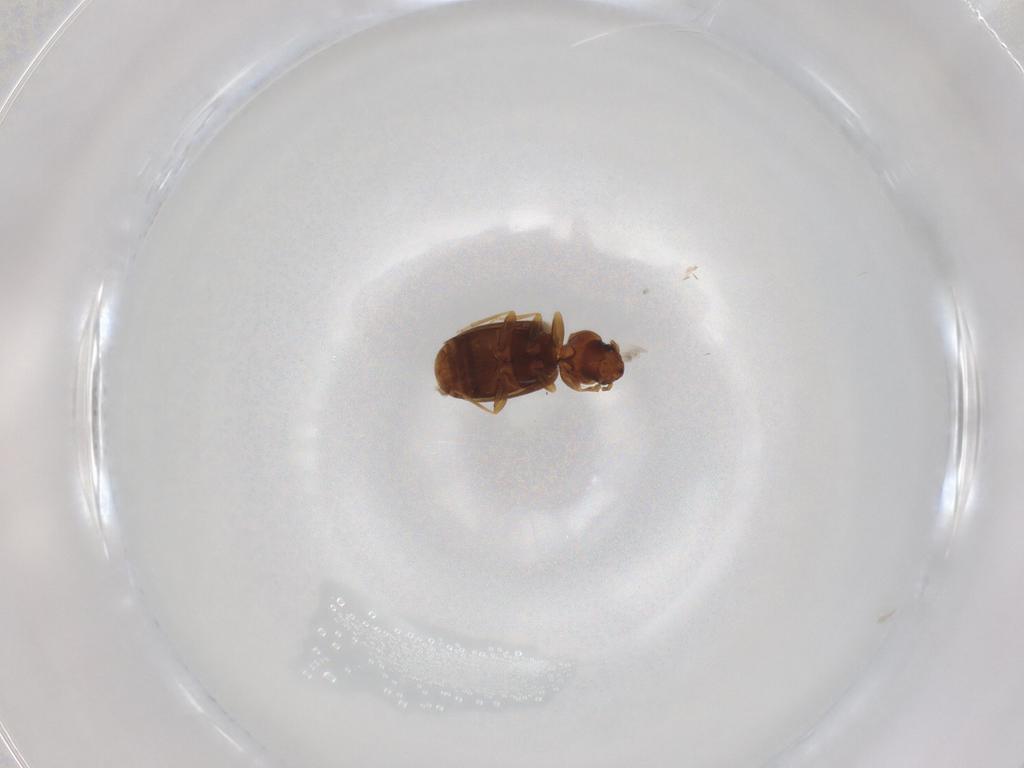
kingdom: Animalia
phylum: Arthropoda
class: Insecta
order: Coleoptera
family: Carabidae
